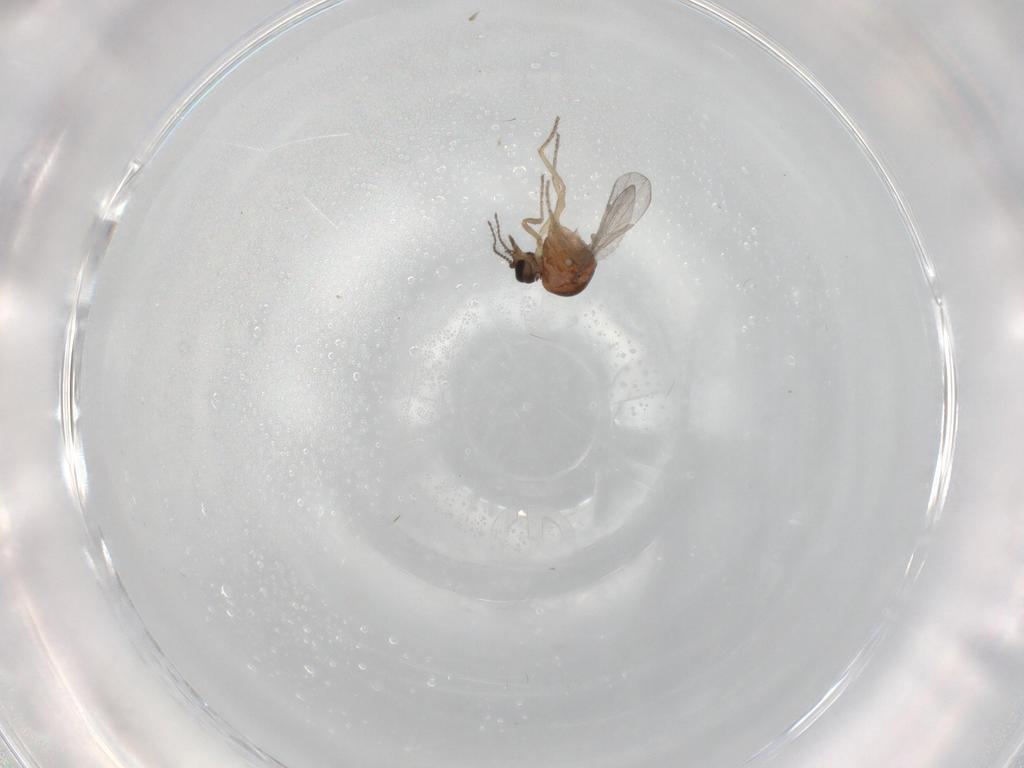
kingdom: Animalia
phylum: Arthropoda
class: Insecta
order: Diptera
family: Ceratopogonidae
